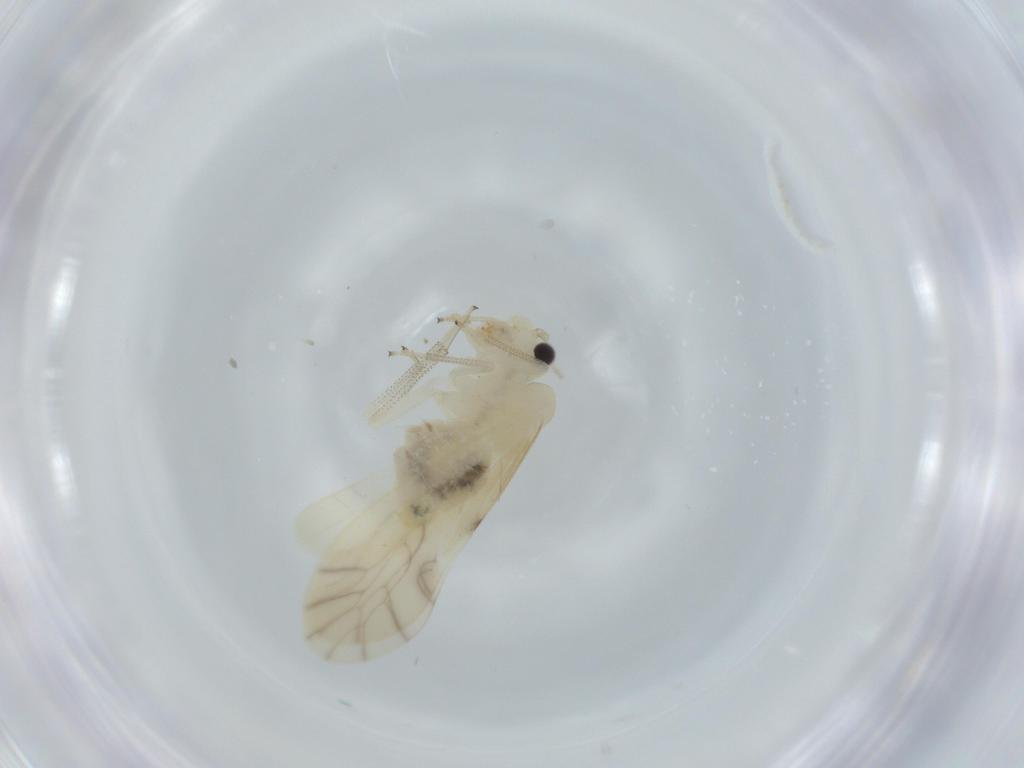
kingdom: Animalia
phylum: Arthropoda
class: Insecta
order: Psocodea
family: Caeciliusidae
